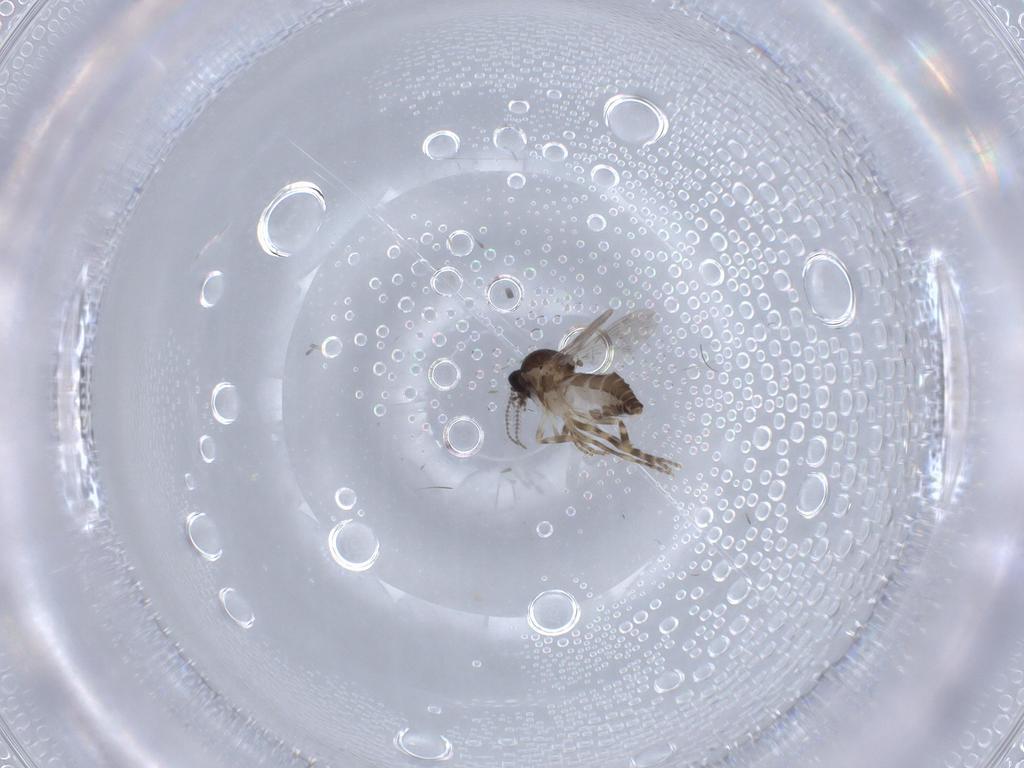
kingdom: Animalia
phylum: Arthropoda
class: Insecta
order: Diptera
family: Ceratopogonidae
